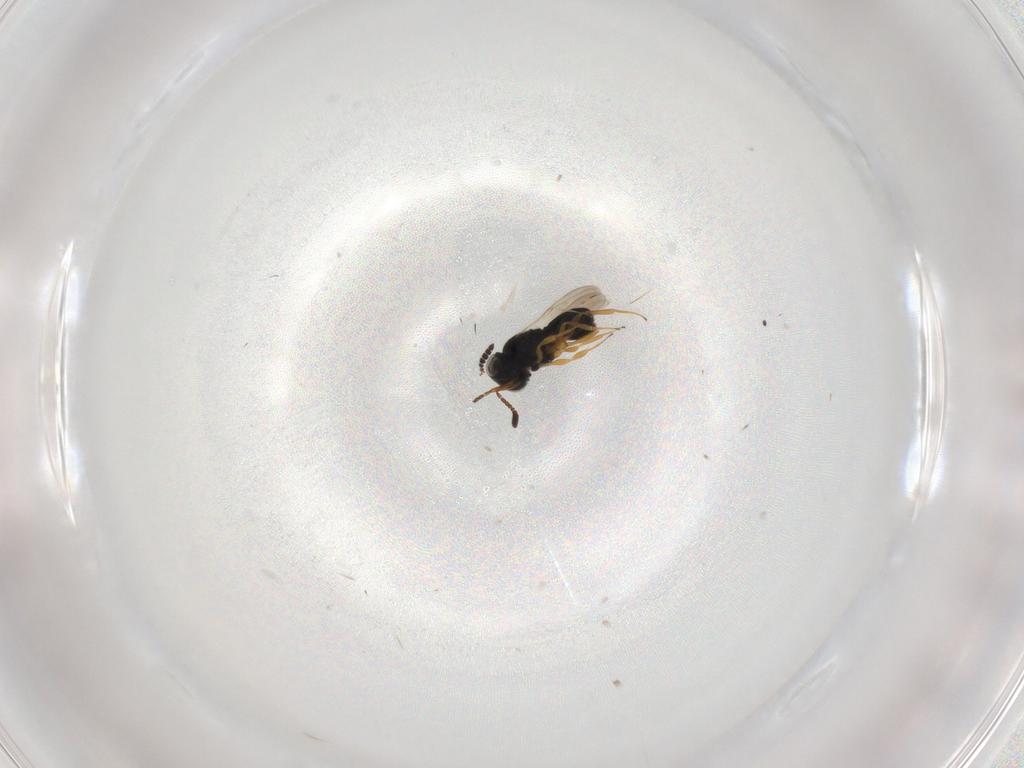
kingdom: Animalia
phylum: Arthropoda
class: Insecta
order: Hymenoptera
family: Scelionidae
